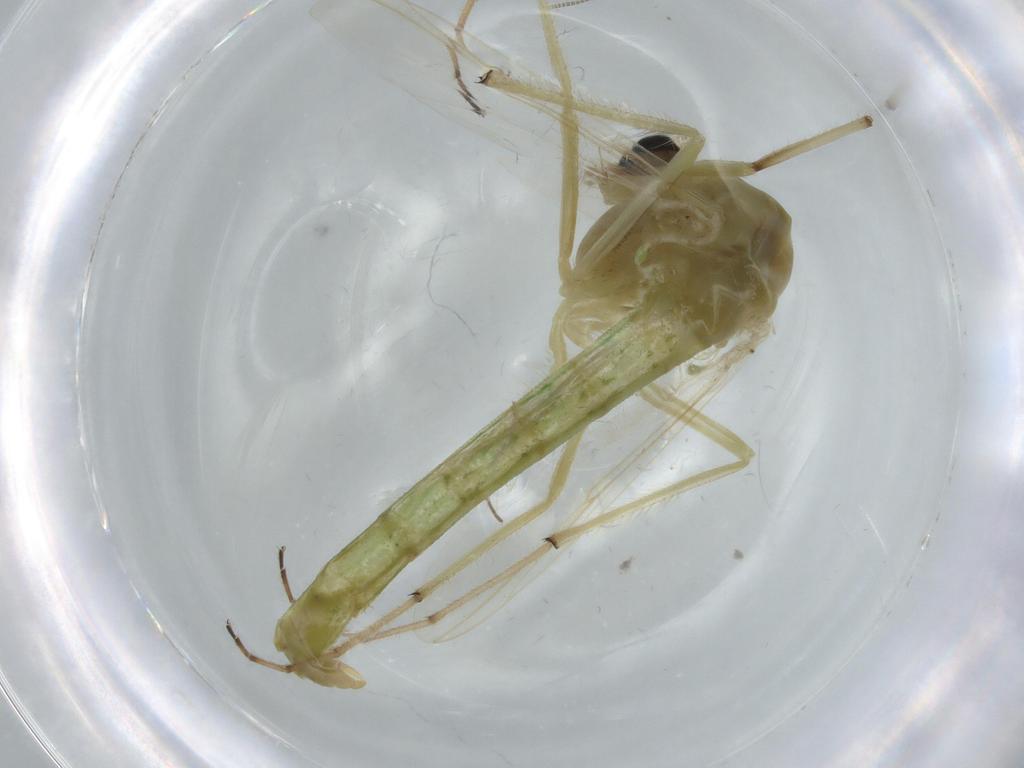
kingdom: Animalia
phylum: Arthropoda
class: Insecta
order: Diptera
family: Chironomidae
